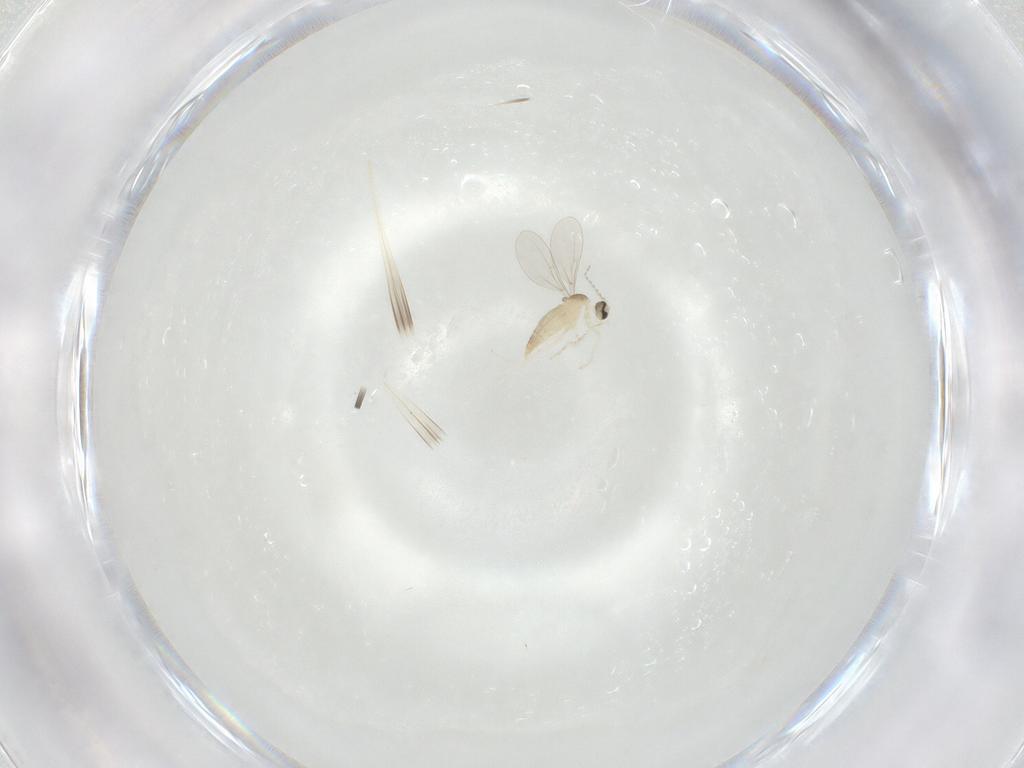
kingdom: Animalia
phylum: Arthropoda
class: Insecta
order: Diptera
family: Cecidomyiidae
